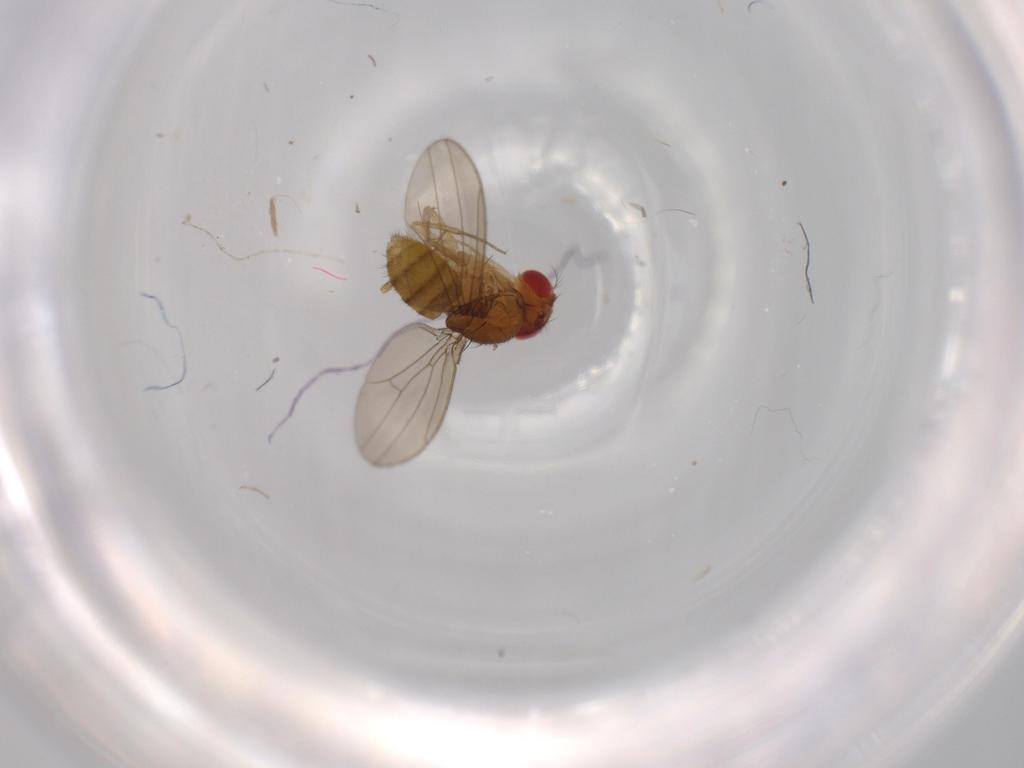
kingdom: Animalia
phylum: Arthropoda
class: Insecta
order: Diptera
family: Drosophilidae
